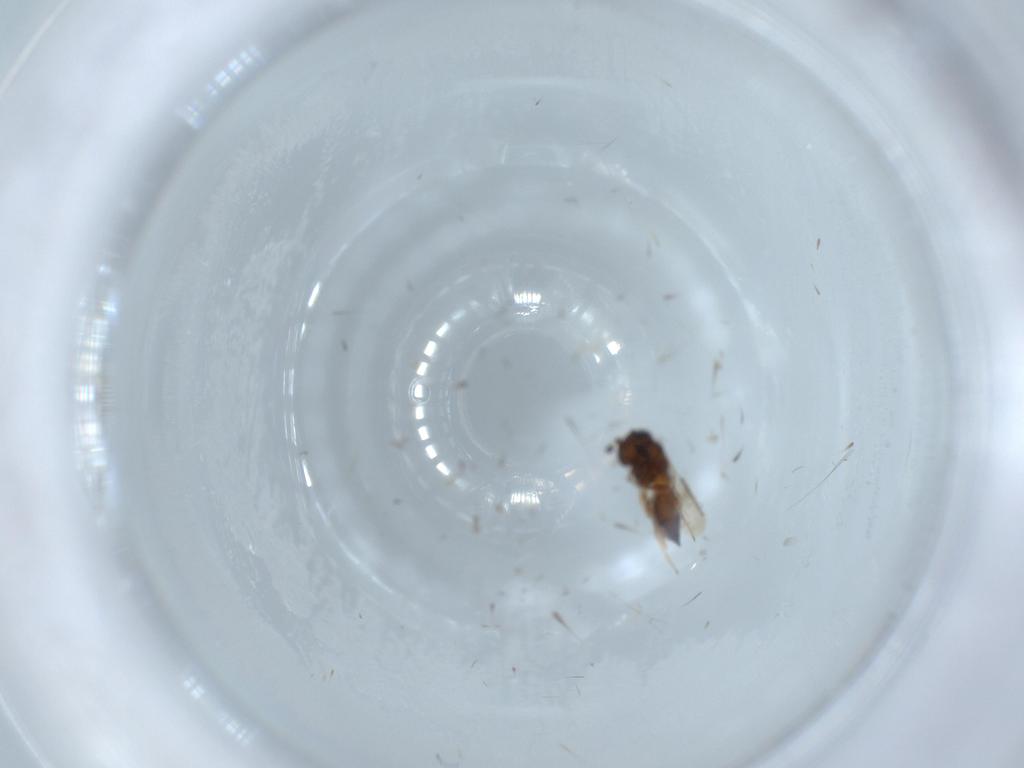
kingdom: Animalia
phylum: Arthropoda
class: Insecta
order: Hymenoptera
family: Scelionidae
